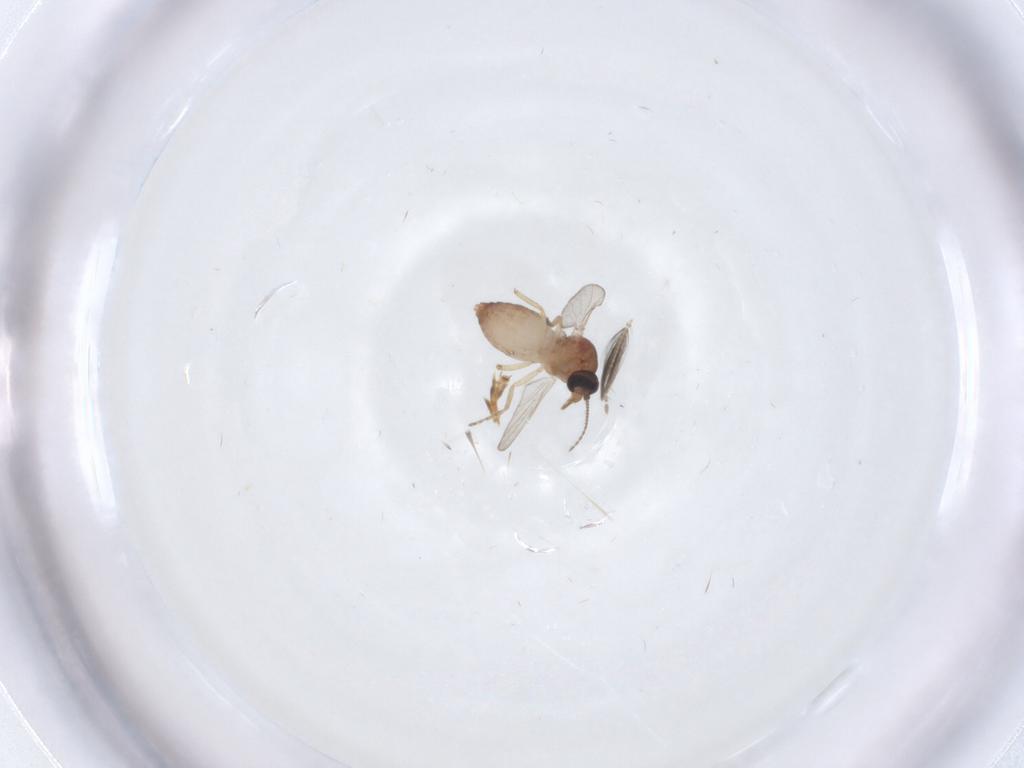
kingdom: Animalia
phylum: Arthropoda
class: Insecta
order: Diptera
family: Ceratopogonidae
